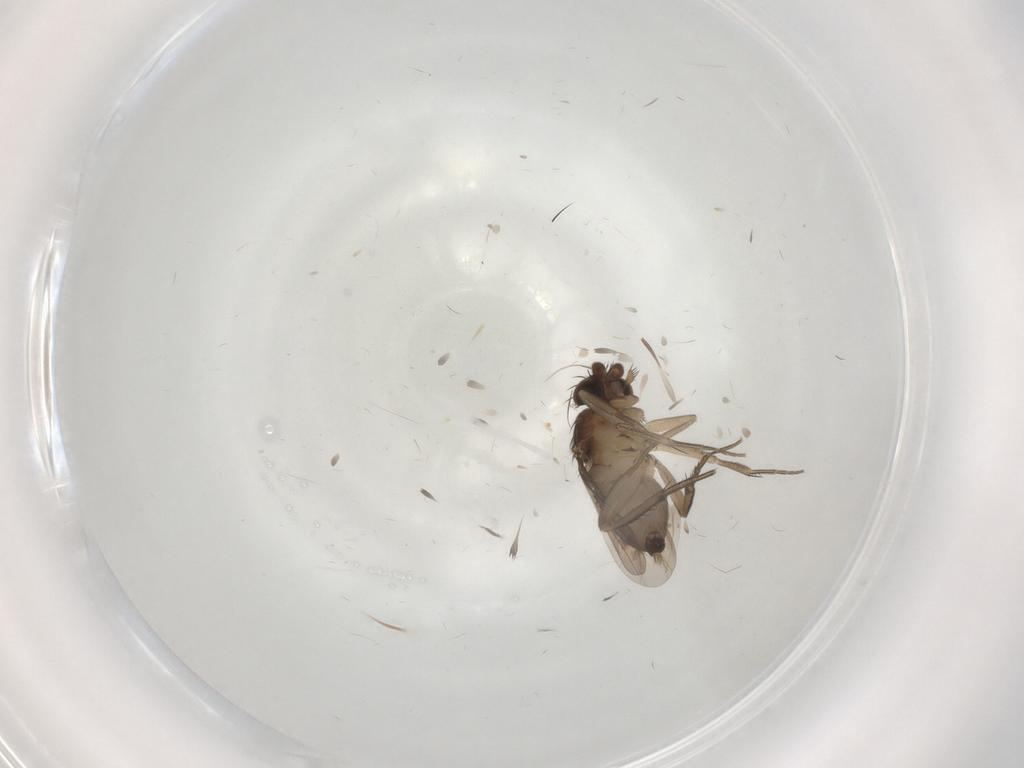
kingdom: Animalia
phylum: Arthropoda
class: Insecta
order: Diptera
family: Phoridae
